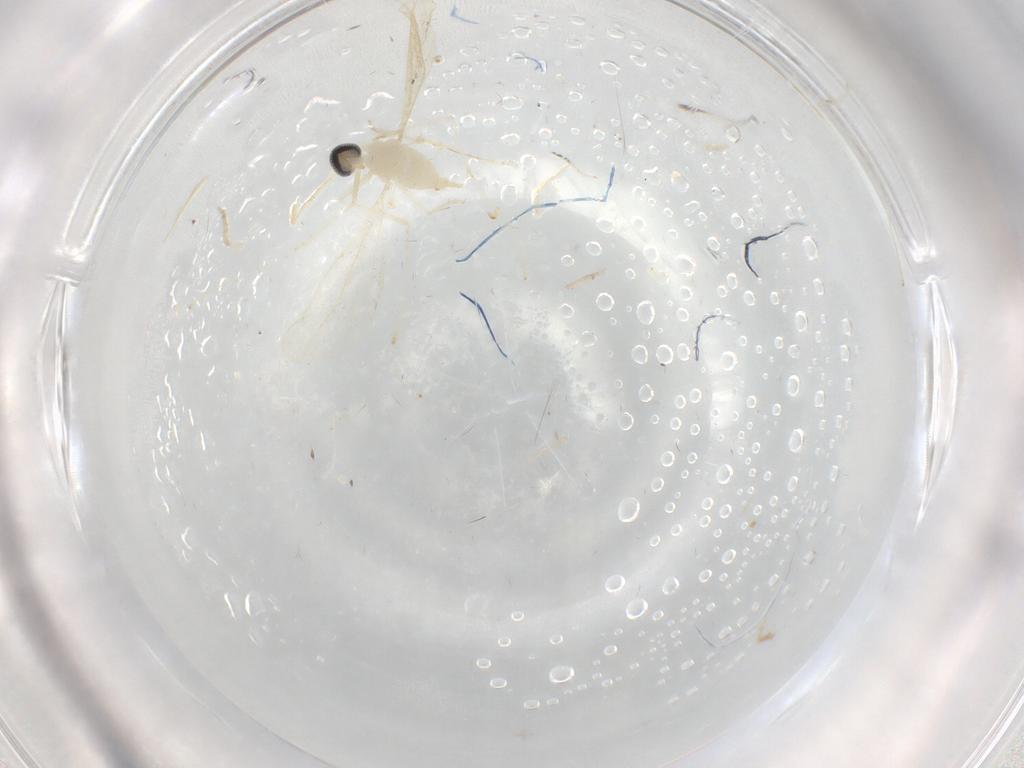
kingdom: Animalia
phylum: Arthropoda
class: Insecta
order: Diptera
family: Cecidomyiidae
